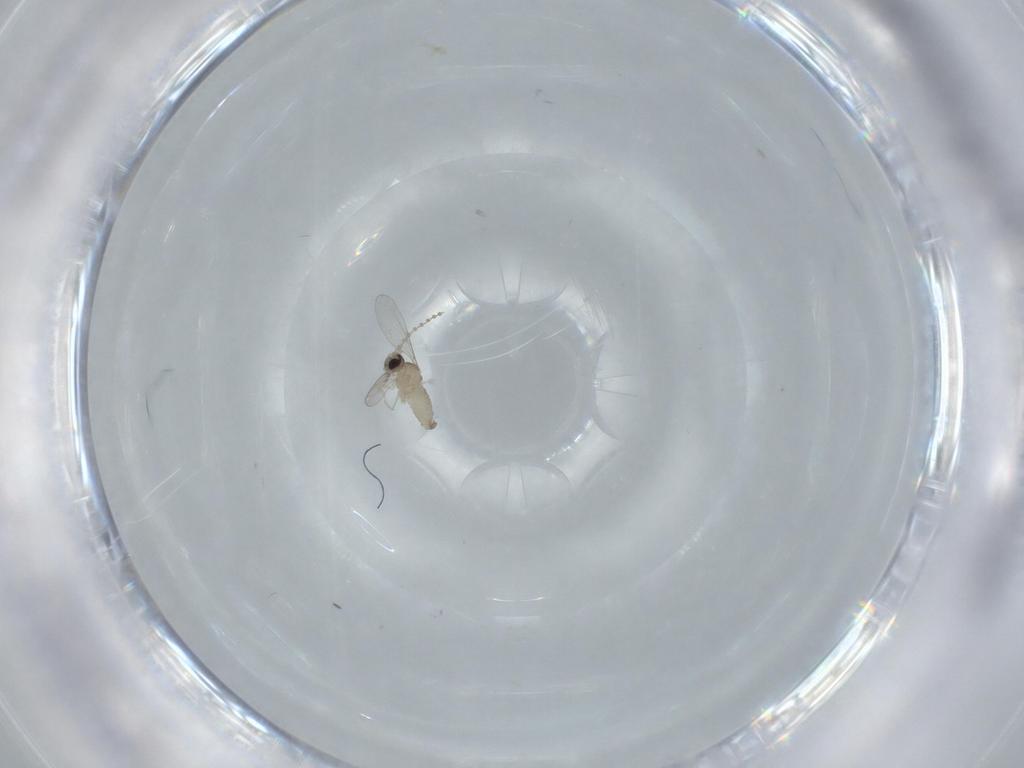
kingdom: Animalia
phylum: Arthropoda
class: Insecta
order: Diptera
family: Cecidomyiidae
